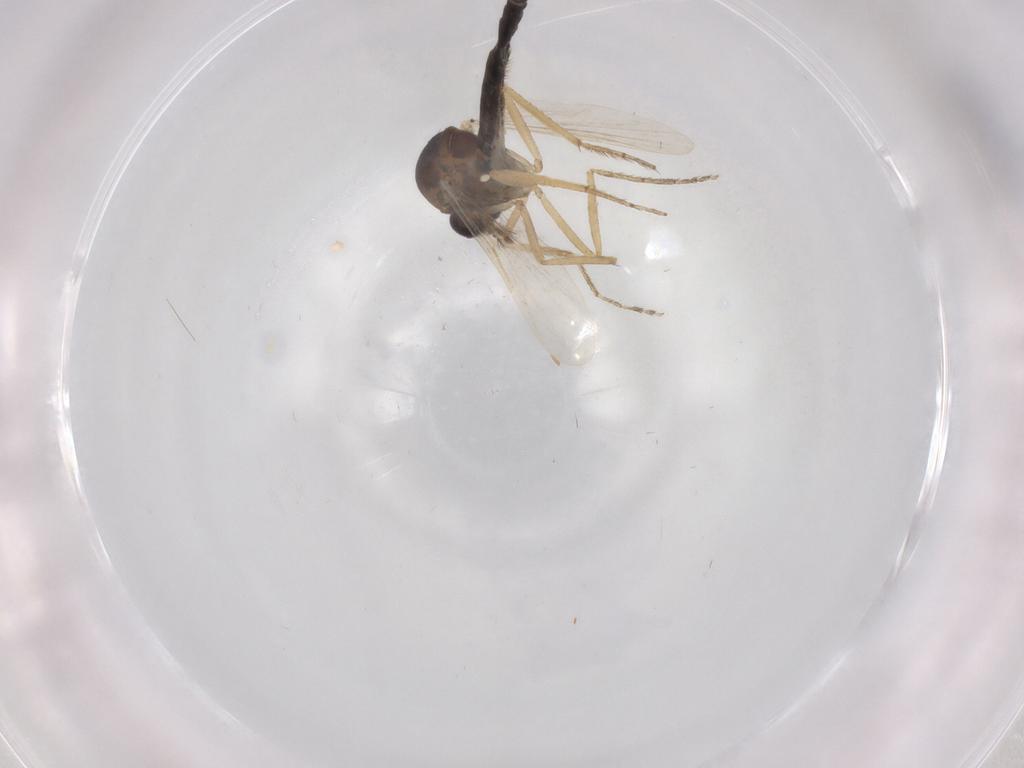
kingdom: Animalia
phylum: Arthropoda
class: Insecta
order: Diptera
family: Ceratopogonidae
